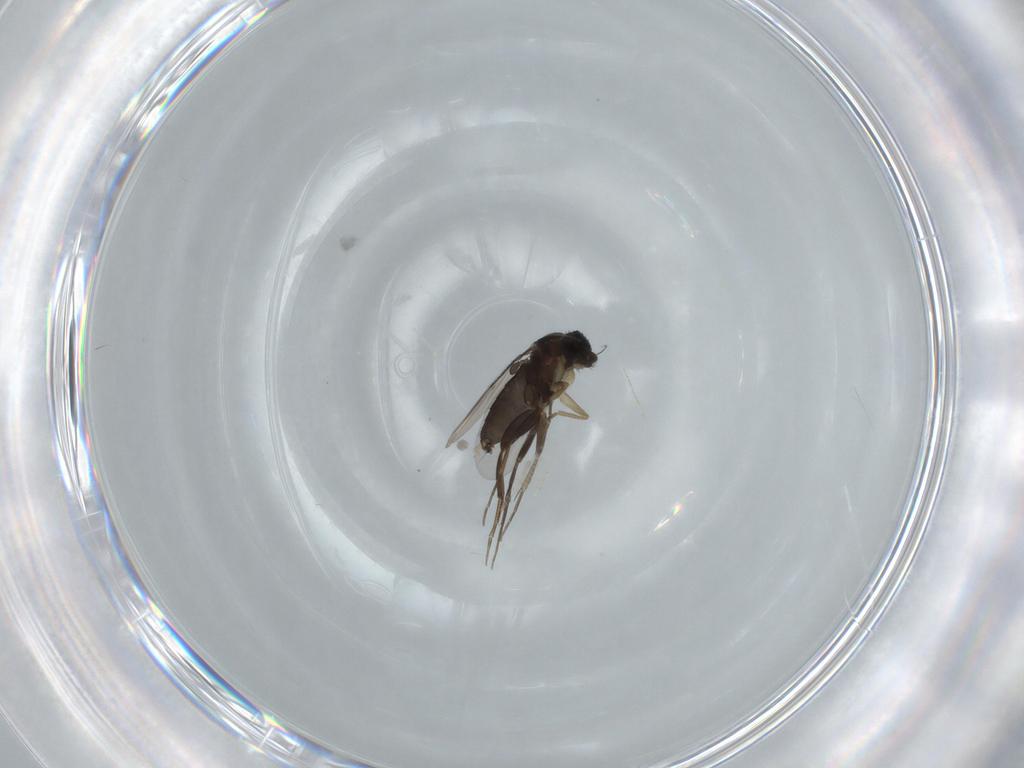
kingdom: Animalia
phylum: Arthropoda
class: Insecta
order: Diptera
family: Phoridae
